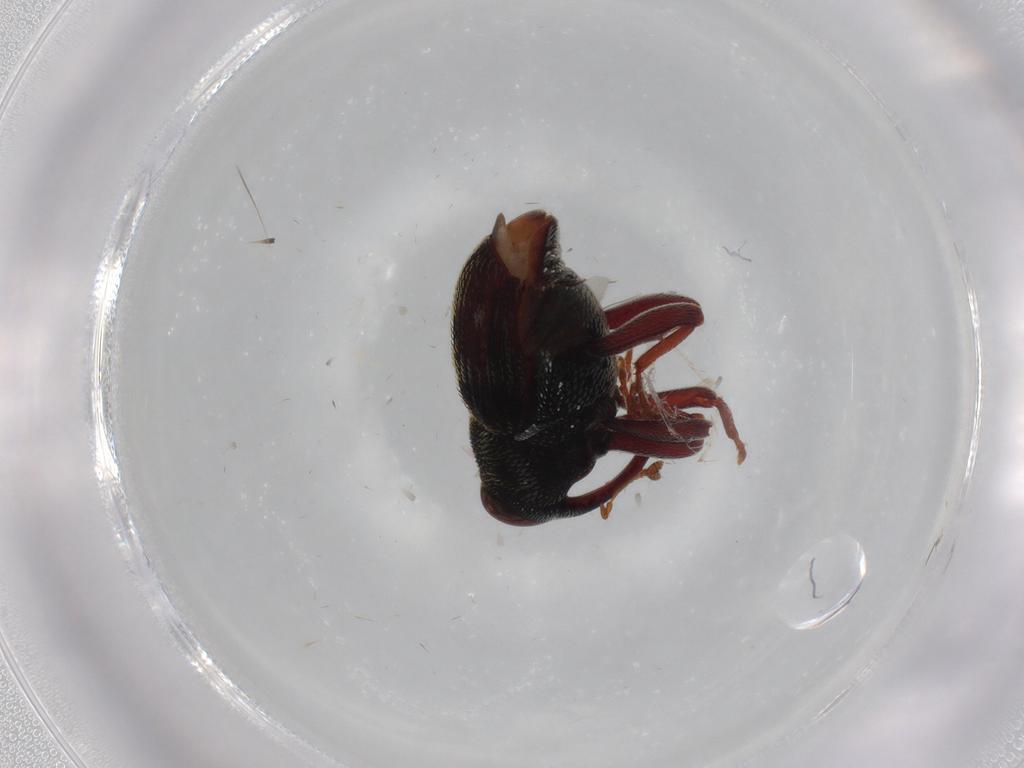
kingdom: Animalia
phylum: Arthropoda
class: Insecta
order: Coleoptera
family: Curculionidae
